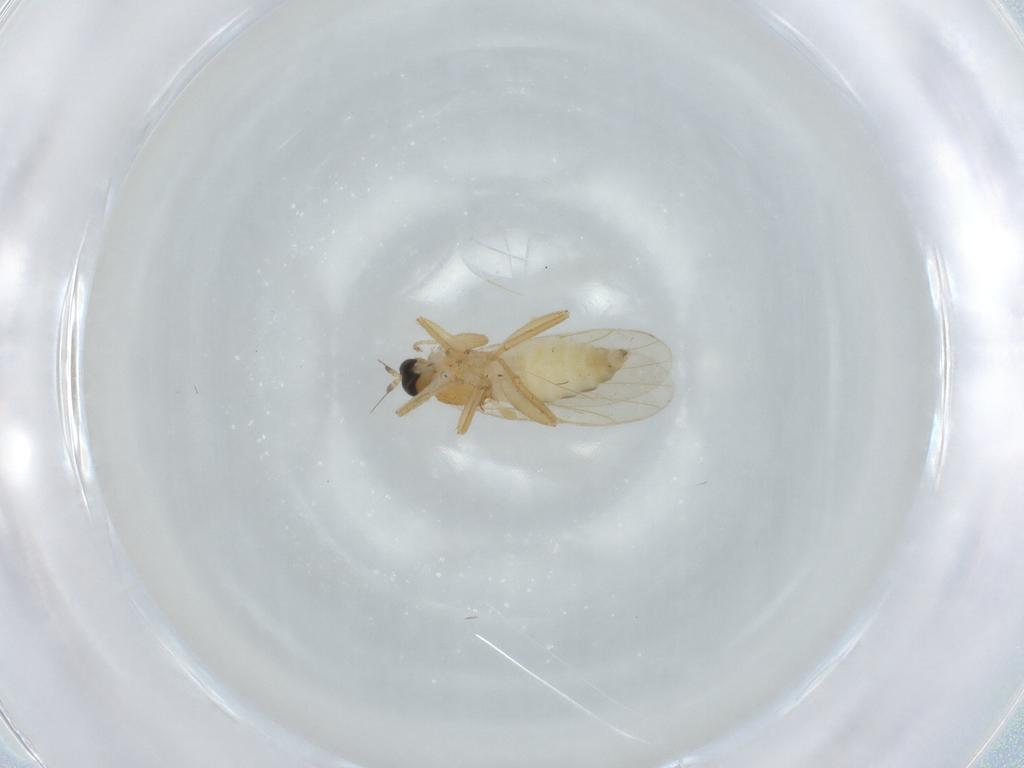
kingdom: Animalia
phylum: Arthropoda
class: Insecta
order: Diptera
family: Hybotidae
